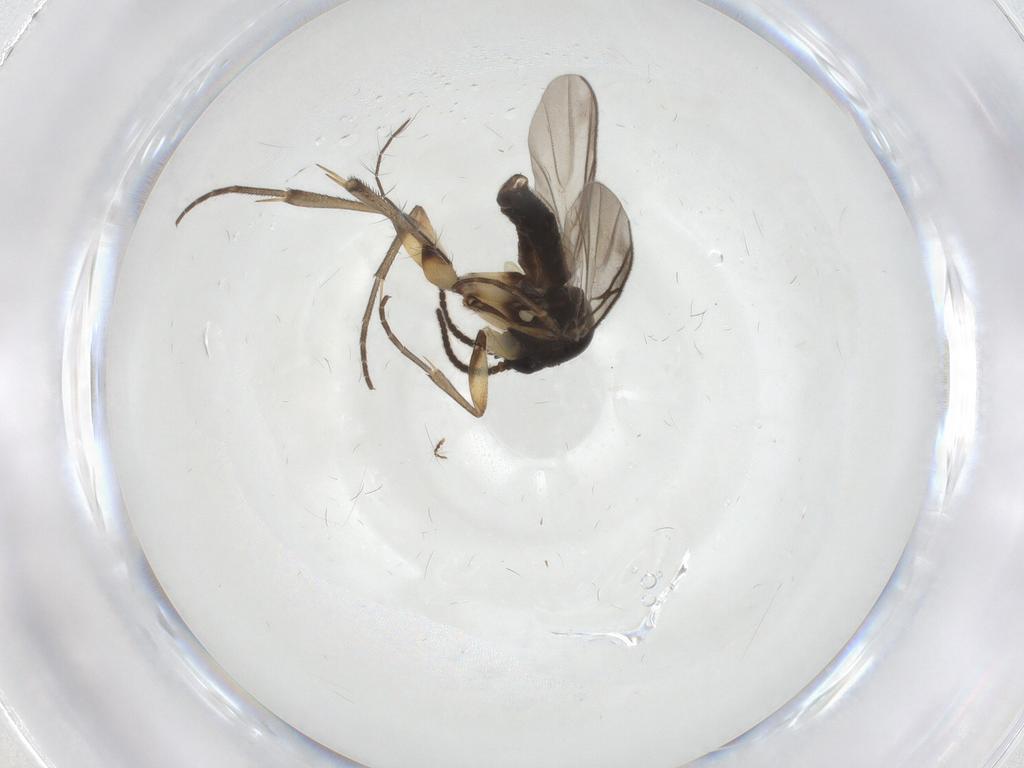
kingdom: Animalia
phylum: Arthropoda
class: Insecta
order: Diptera
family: Mycetophilidae
